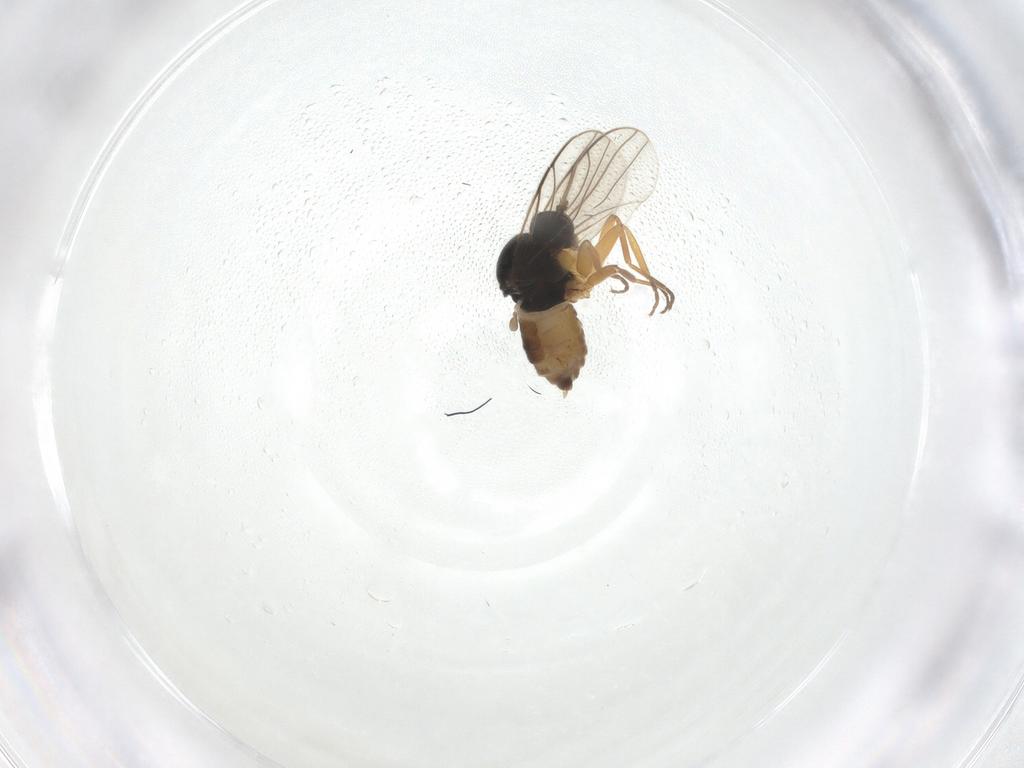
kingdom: Animalia
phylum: Arthropoda
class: Insecta
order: Diptera
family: Hybotidae
